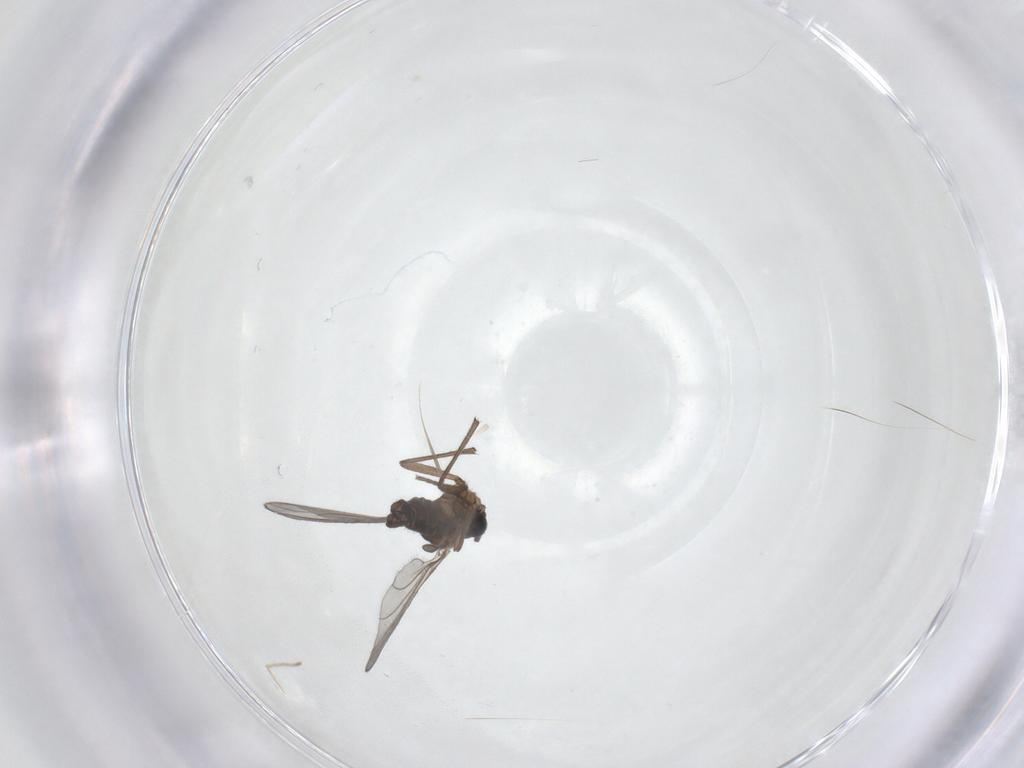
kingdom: Animalia
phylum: Arthropoda
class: Insecta
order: Diptera
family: Sciaridae
